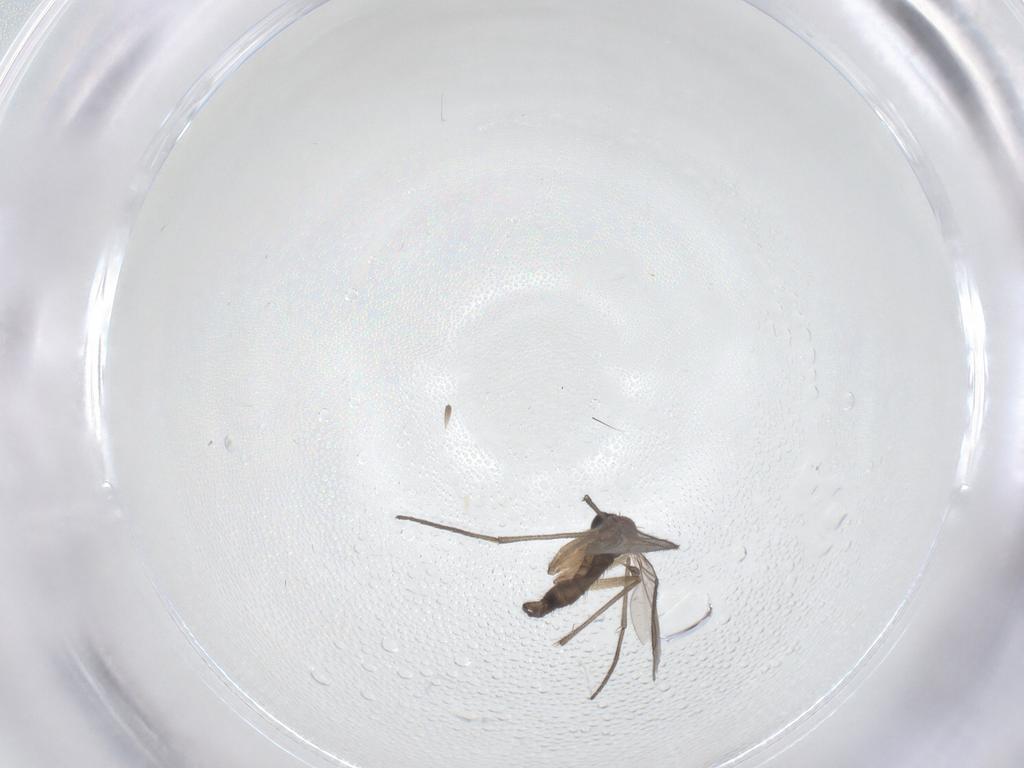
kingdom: Animalia
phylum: Arthropoda
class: Insecta
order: Diptera
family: Sciaridae
